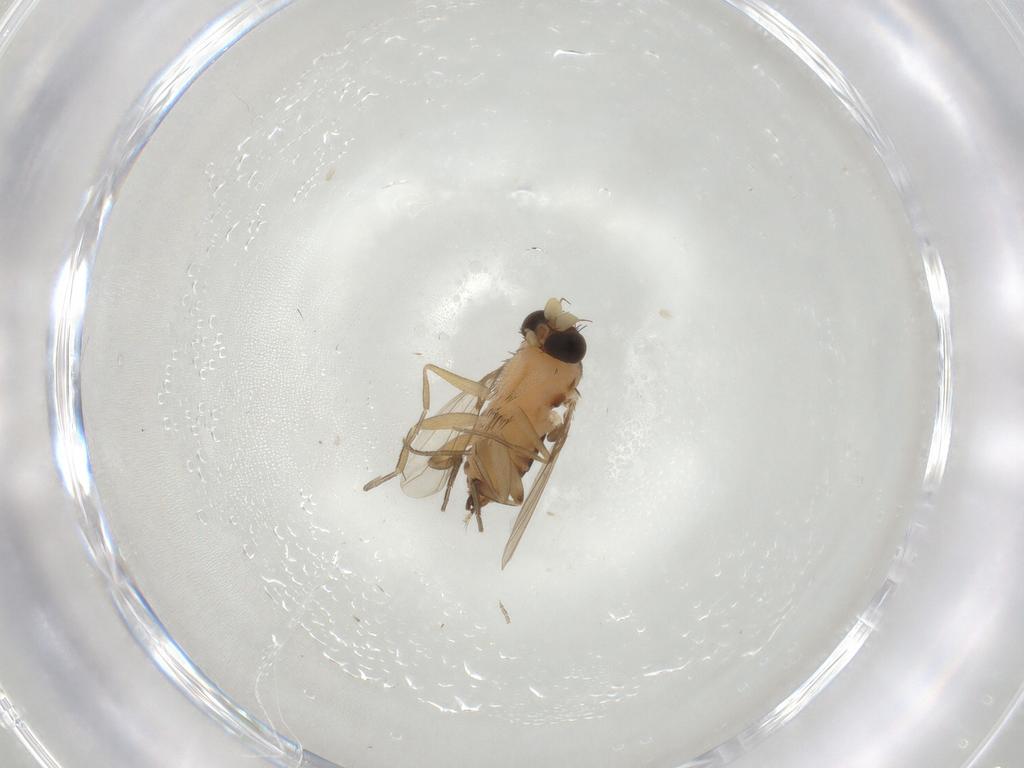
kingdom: Animalia
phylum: Arthropoda
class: Insecta
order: Diptera
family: Phoridae
